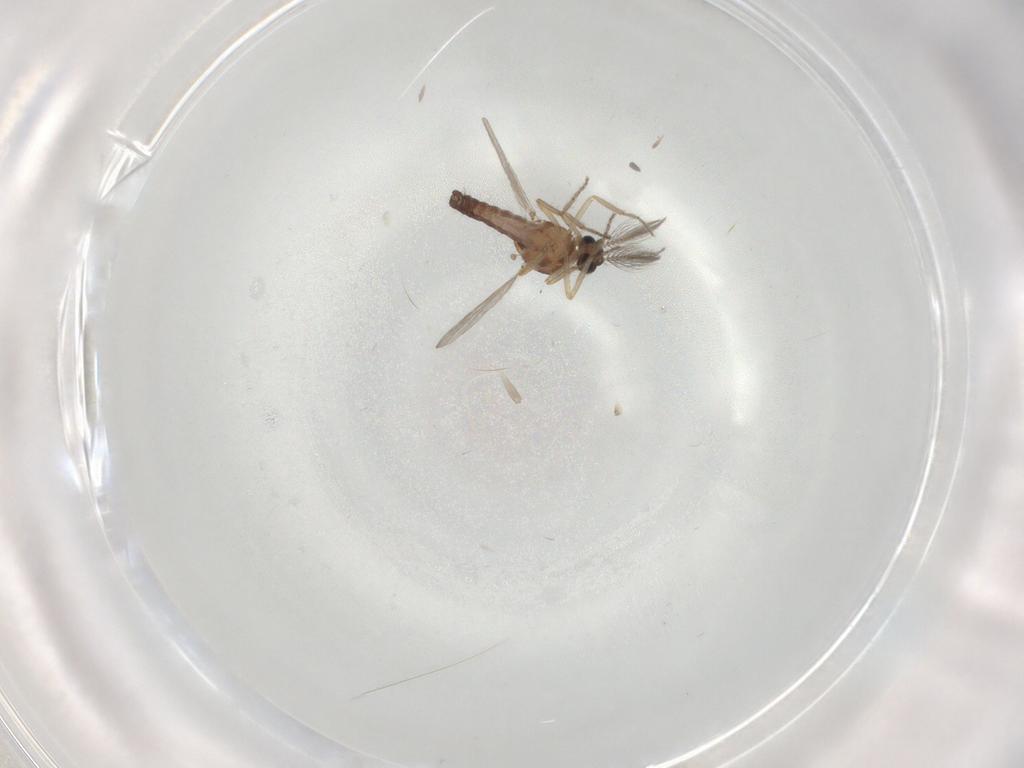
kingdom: Animalia
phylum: Arthropoda
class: Insecta
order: Diptera
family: Ceratopogonidae
